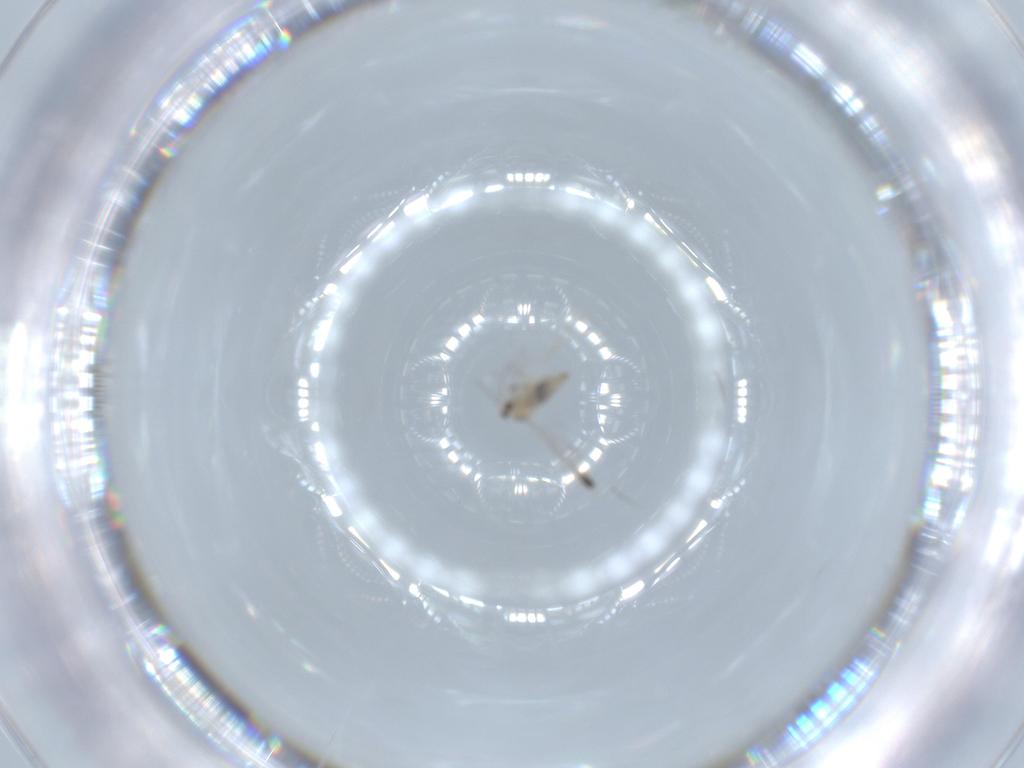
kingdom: Animalia
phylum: Arthropoda
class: Insecta
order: Diptera
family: Cecidomyiidae
